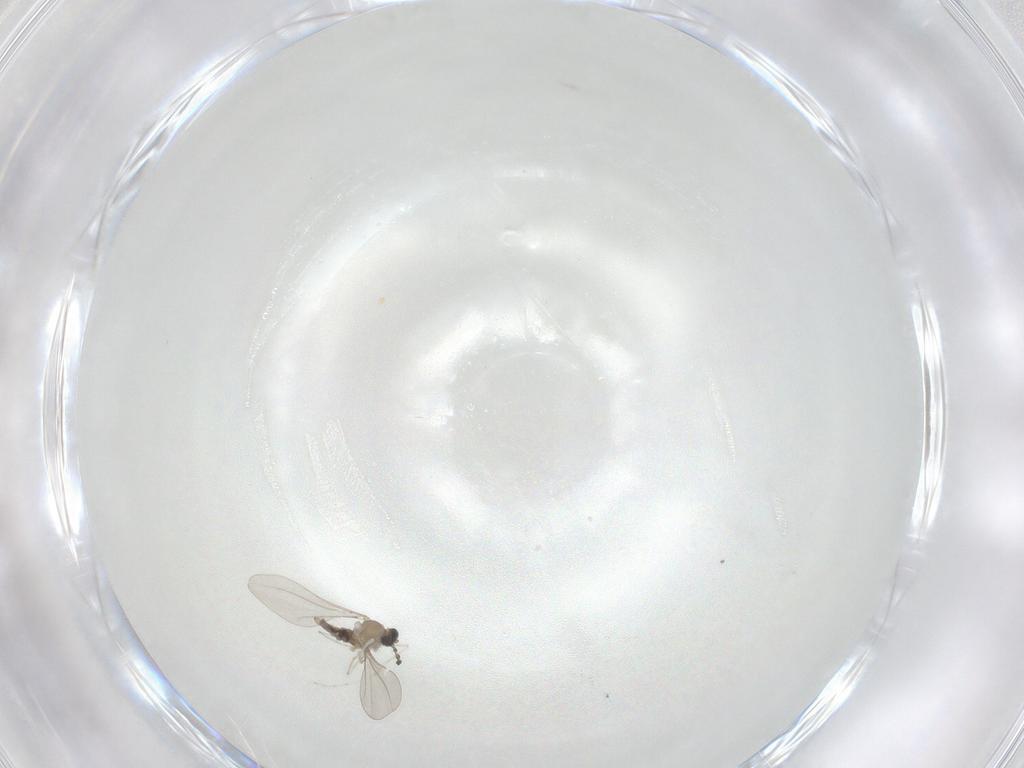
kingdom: Animalia
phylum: Arthropoda
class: Insecta
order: Diptera
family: Cecidomyiidae
